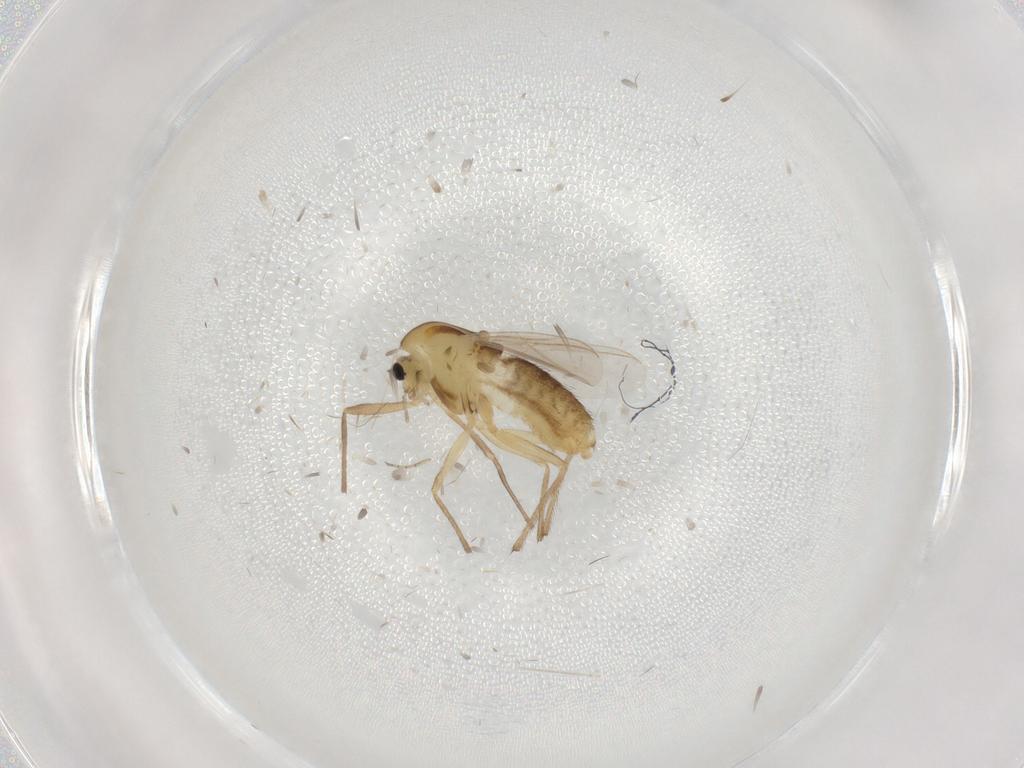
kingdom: Animalia
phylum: Arthropoda
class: Insecta
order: Diptera
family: Chironomidae
